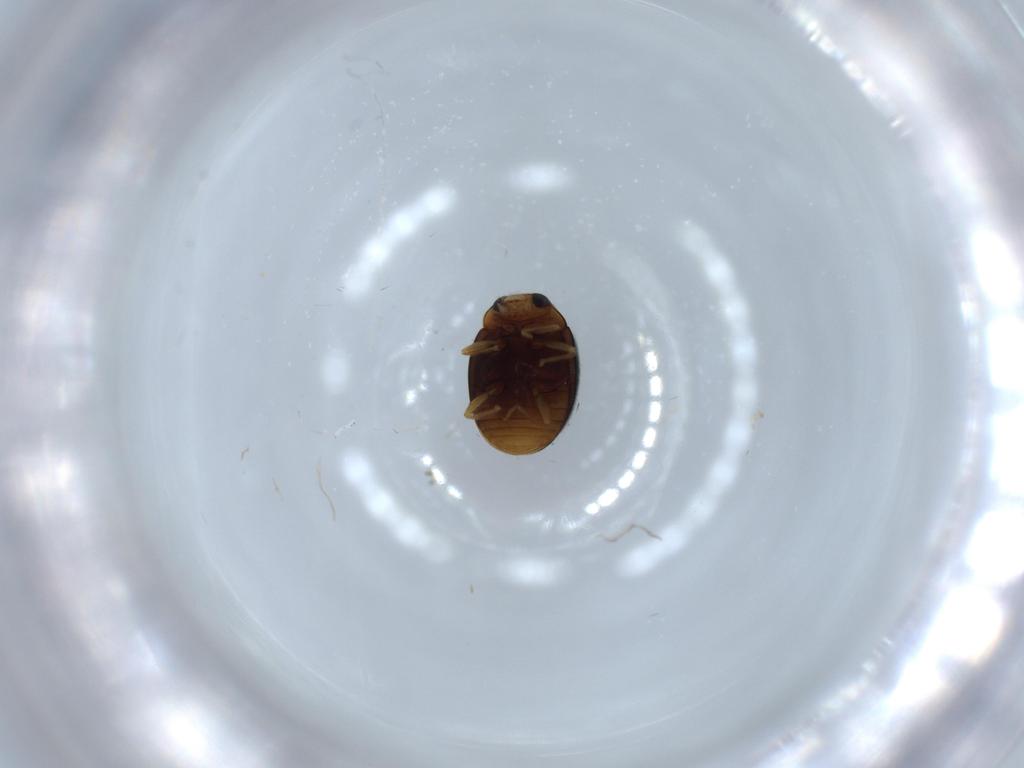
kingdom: Animalia
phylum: Arthropoda
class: Insecta
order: Coleoptera
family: Coccinellidae
